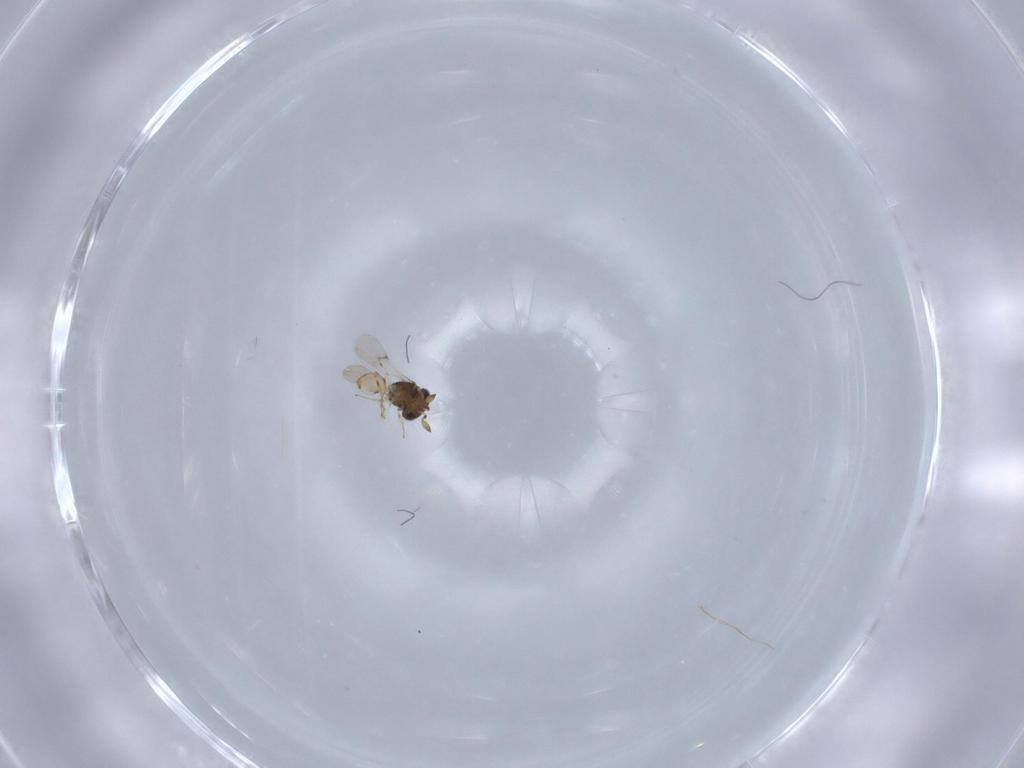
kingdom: Animalia
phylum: Arthropoda
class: Insecta
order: Hymenoptera
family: Scelionidae
